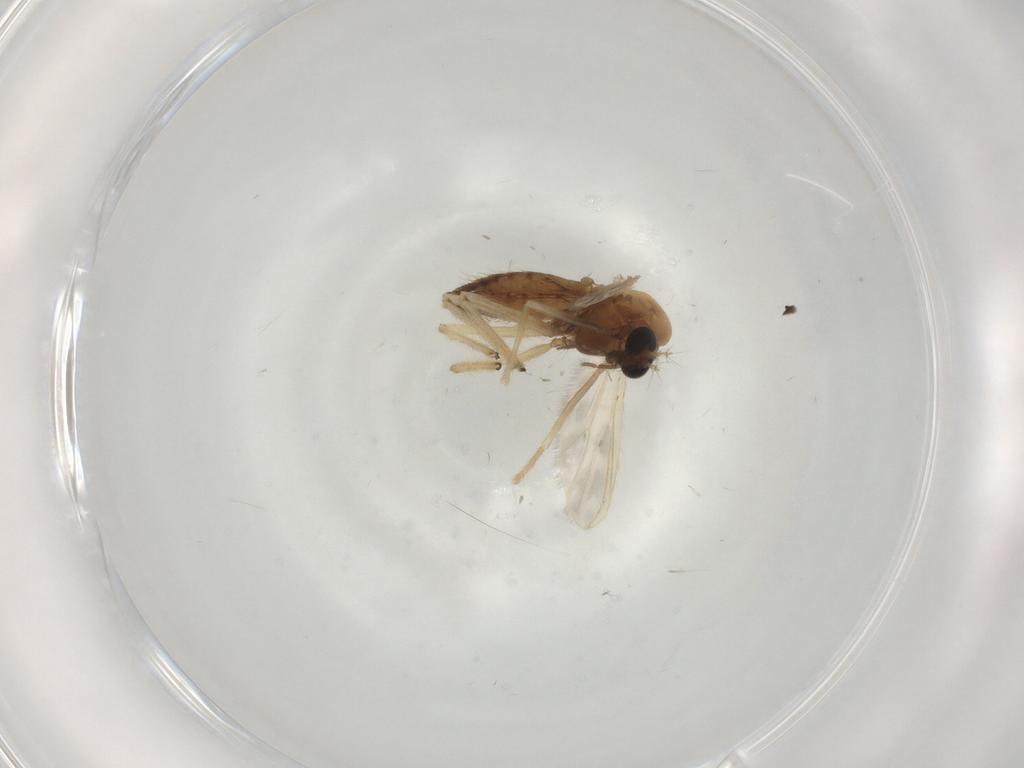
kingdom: Animalia
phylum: Arthropoda
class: Insecta
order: Diptera
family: Chironomidae
